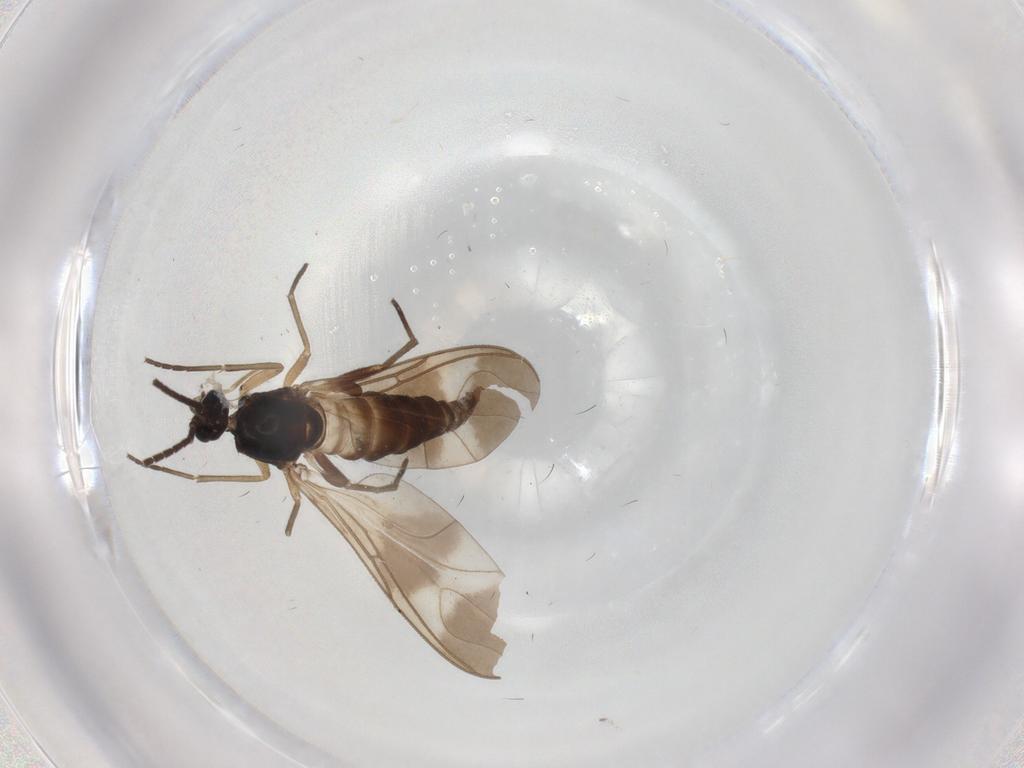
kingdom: Animalia
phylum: Arthropoda
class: Insecta
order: Diptera
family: Sciaridae
